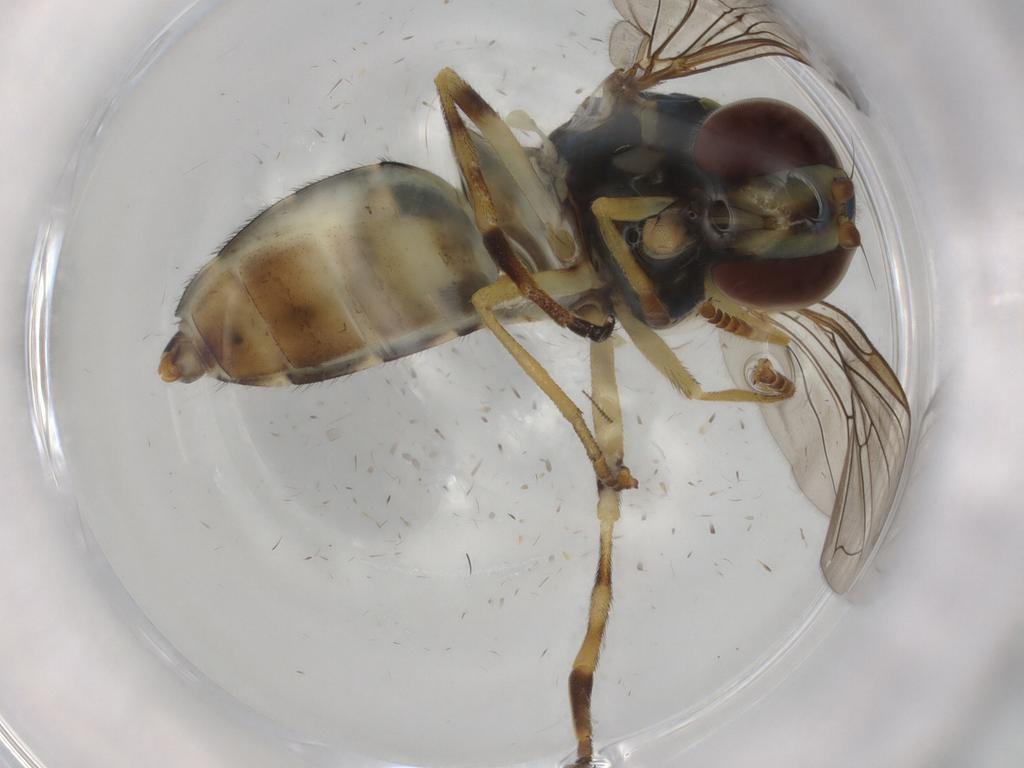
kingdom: Animalia
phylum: Arthropoda
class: Insecta
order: Diptera
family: Syrphidae
